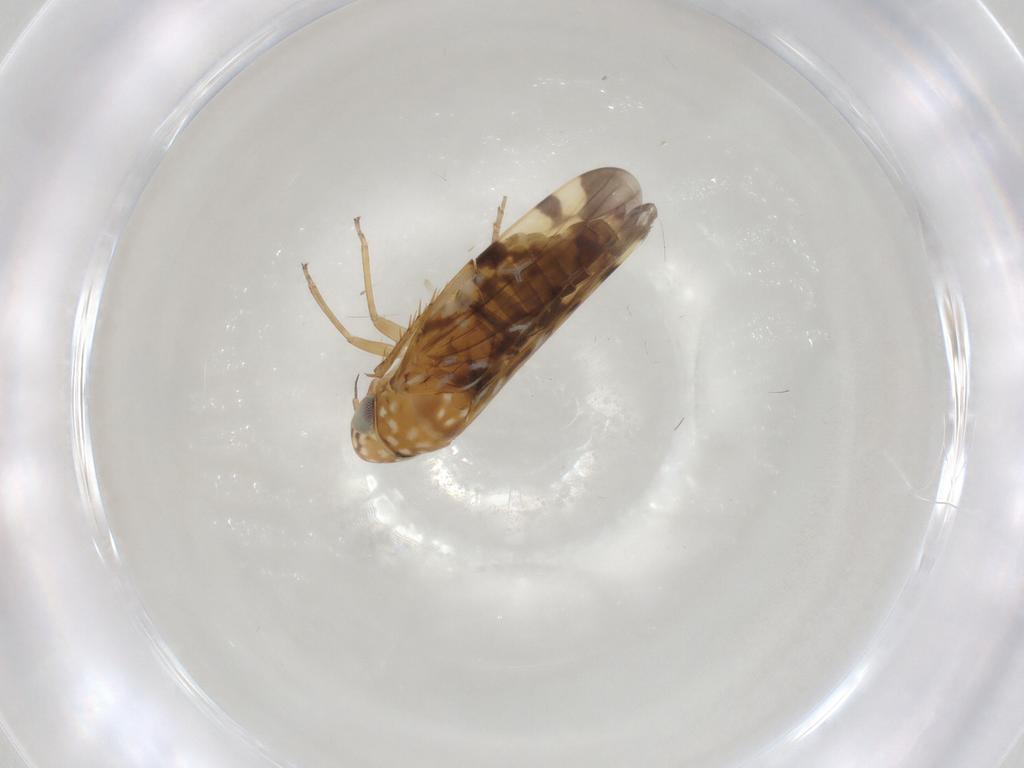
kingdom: Animalia
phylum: Arthropoda
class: Insecta
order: Hemiptera
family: Cicadellidae
